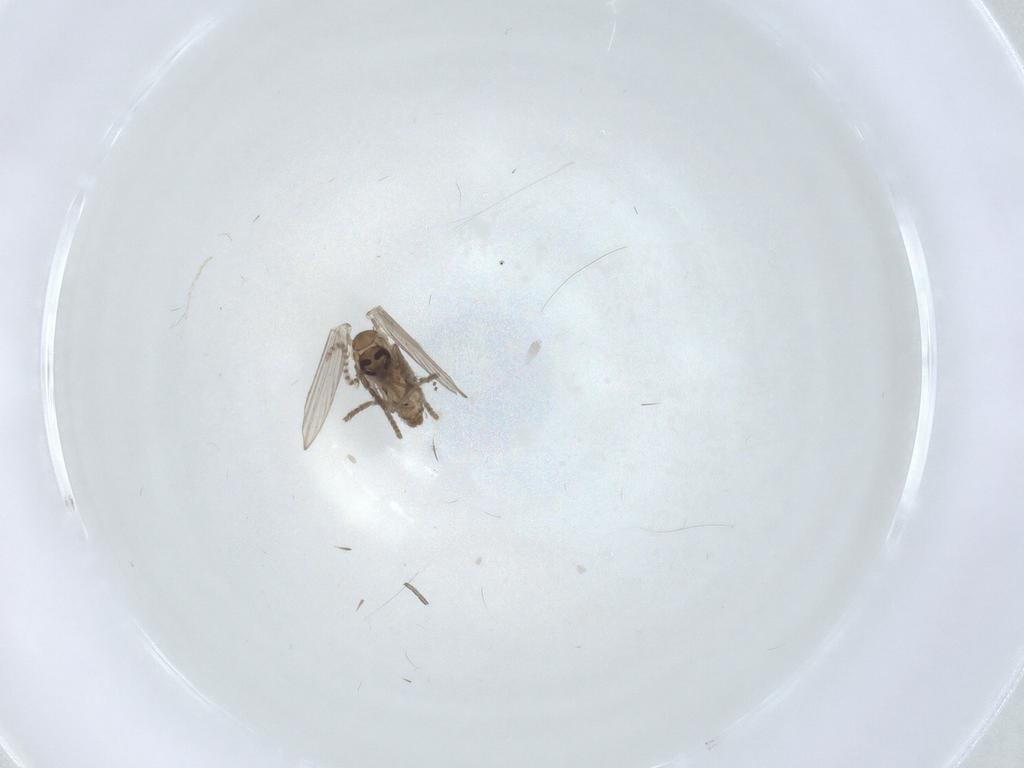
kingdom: Animalia
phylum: Arthropoda
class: Insecta
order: Diptera
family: Psychodidae
